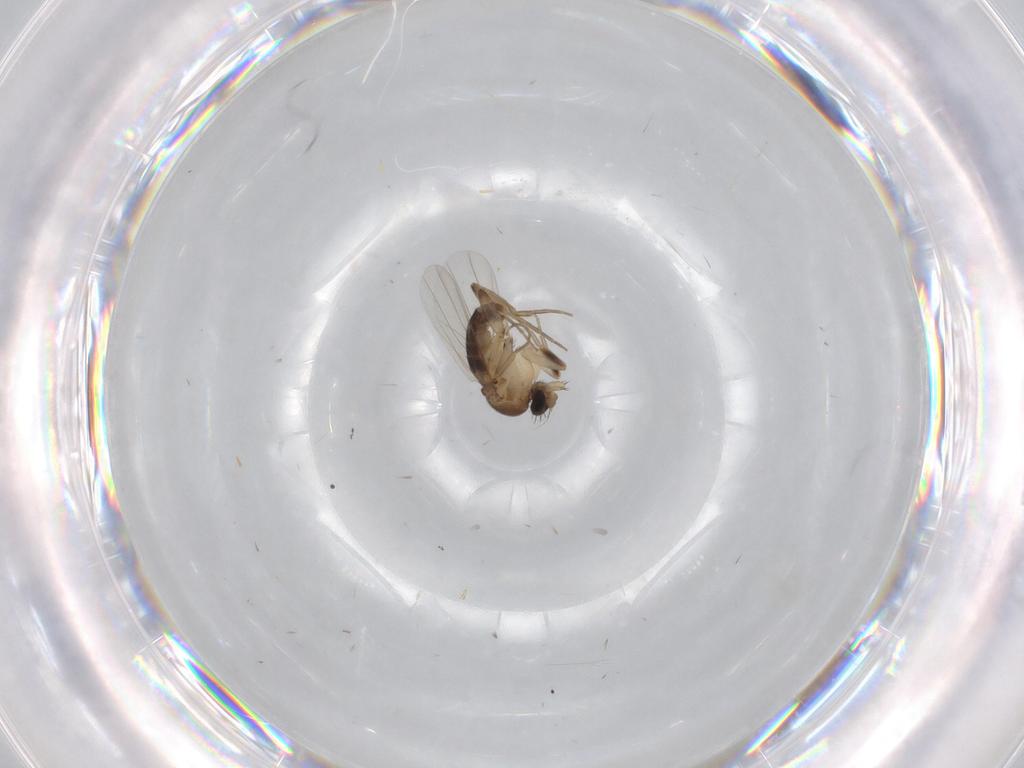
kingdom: Animalia
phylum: Arthropoda
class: Insecta
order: Diptera
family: Phoridae
